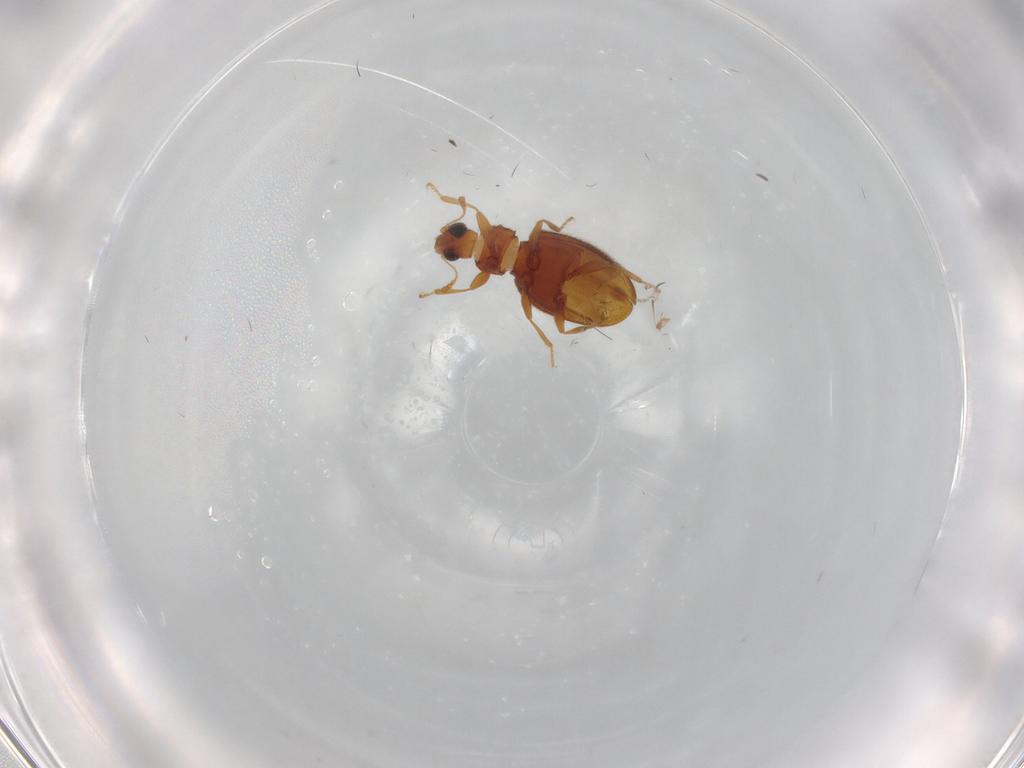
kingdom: Animalia
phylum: Arthropoda
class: Insecta
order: Coleoptera
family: Latridiidae
